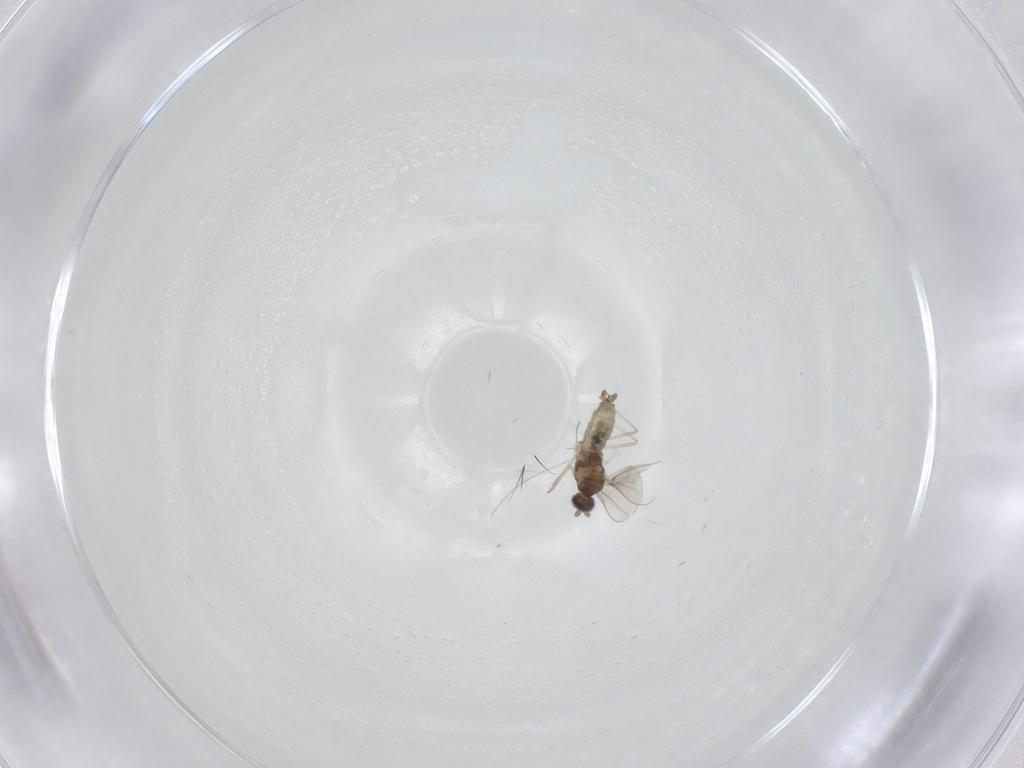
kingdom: Animalia
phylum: Arthropoda
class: Insecta
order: Diptera
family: Cecidomyiidae
